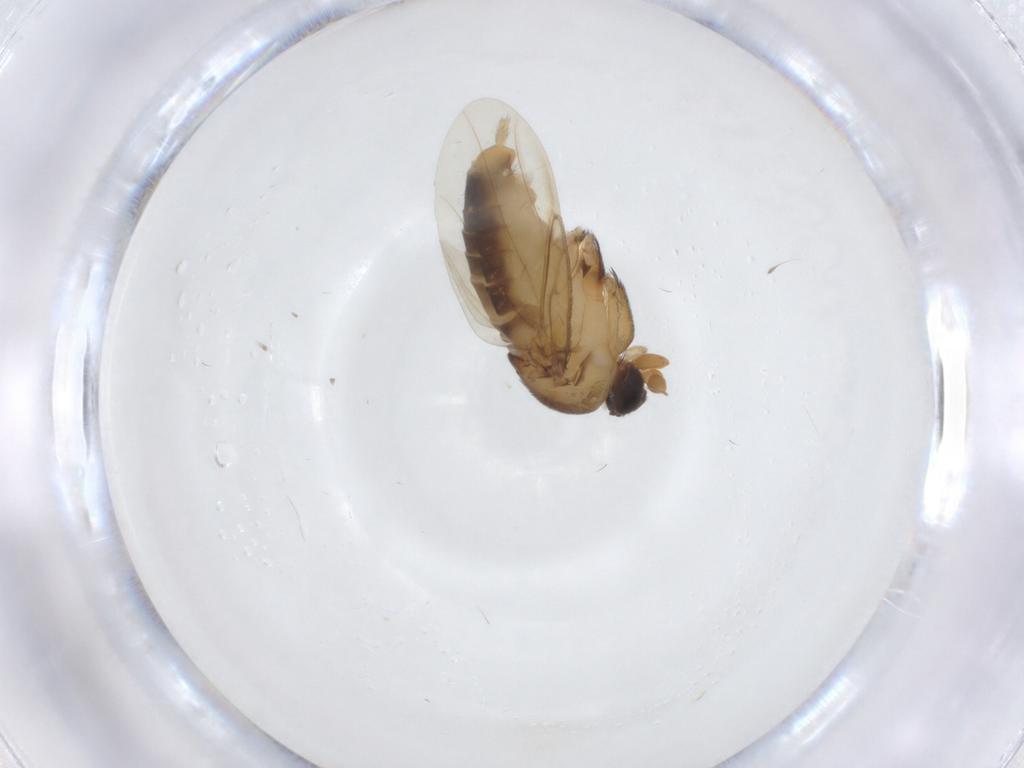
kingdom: Animalia
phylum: Arthropoda
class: Insecta
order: Diptera
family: Phoridae
